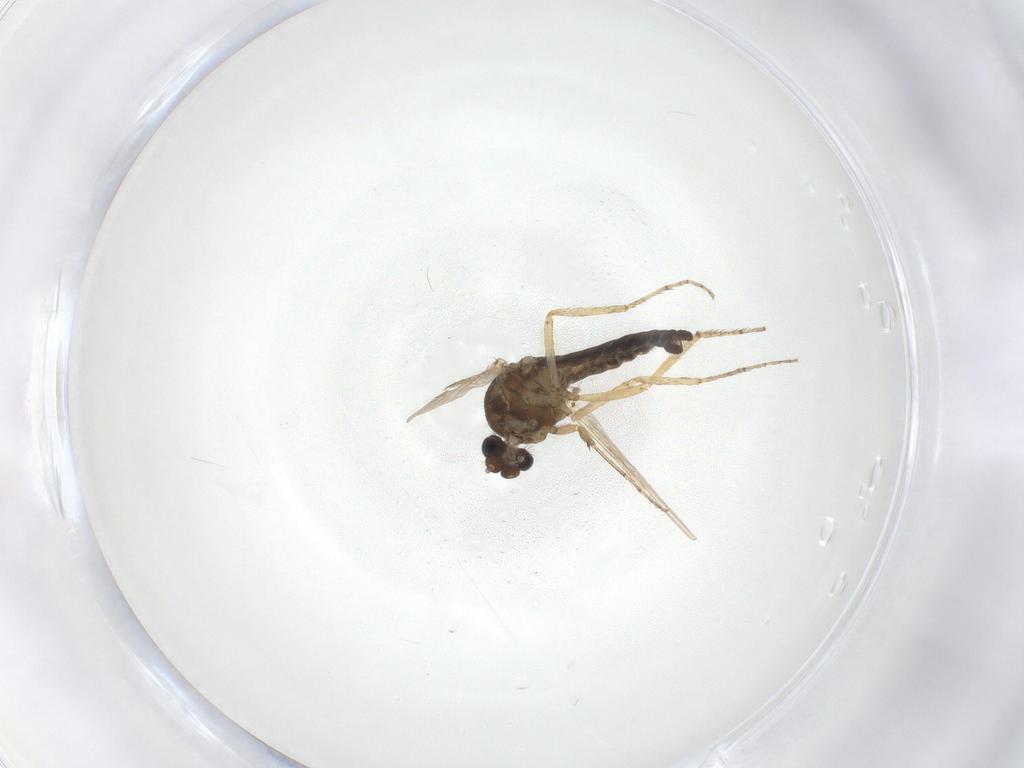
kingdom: Animalia
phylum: Arthropoda
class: Insecta
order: Diptera
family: Ceratopogonidae
